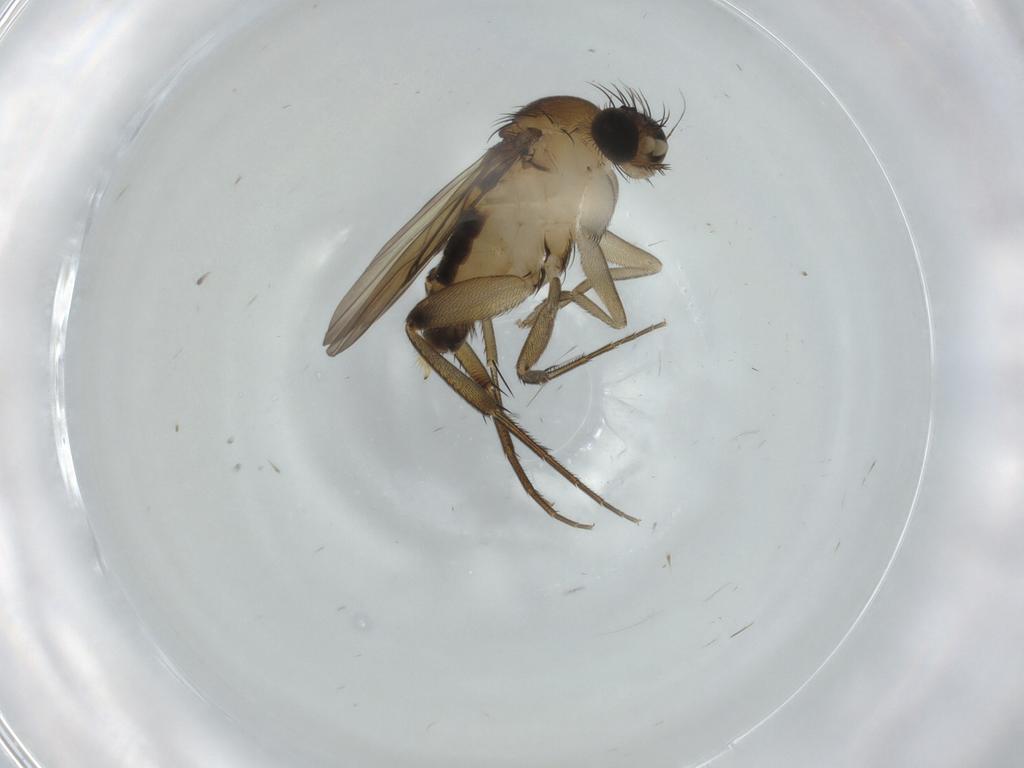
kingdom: Animalia
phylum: Arthropoda
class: Insecta
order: Diptera
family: Phoridae
